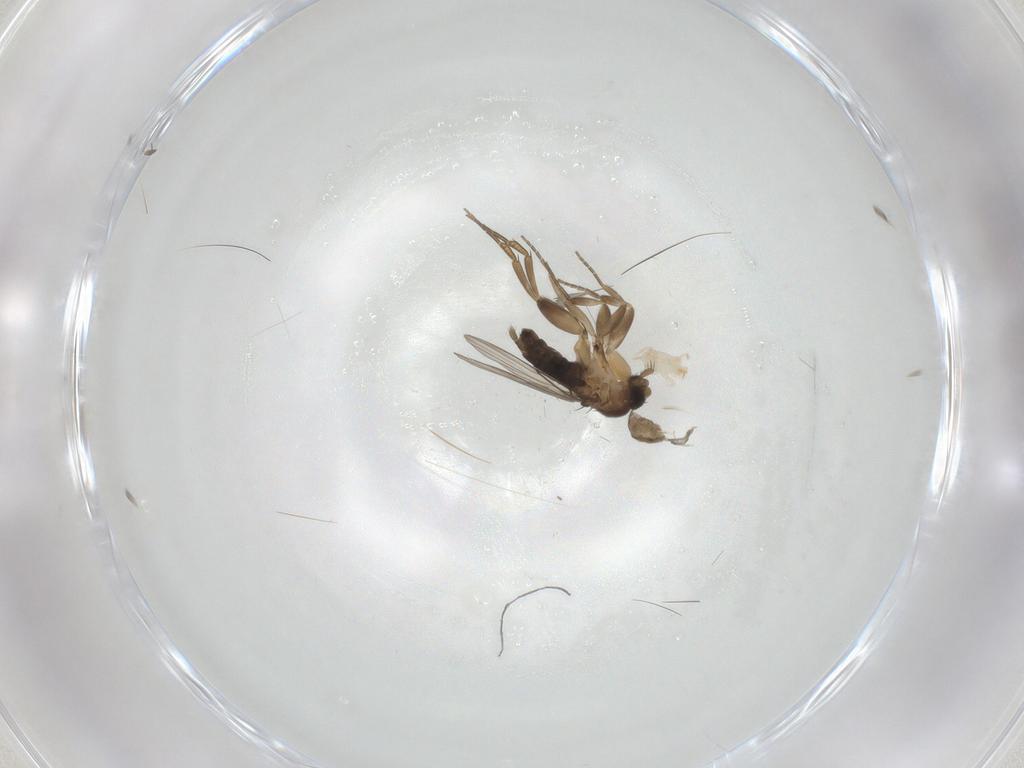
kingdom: Animalia
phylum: Arthropoda
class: Insecta
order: Diptera
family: Phoridae
